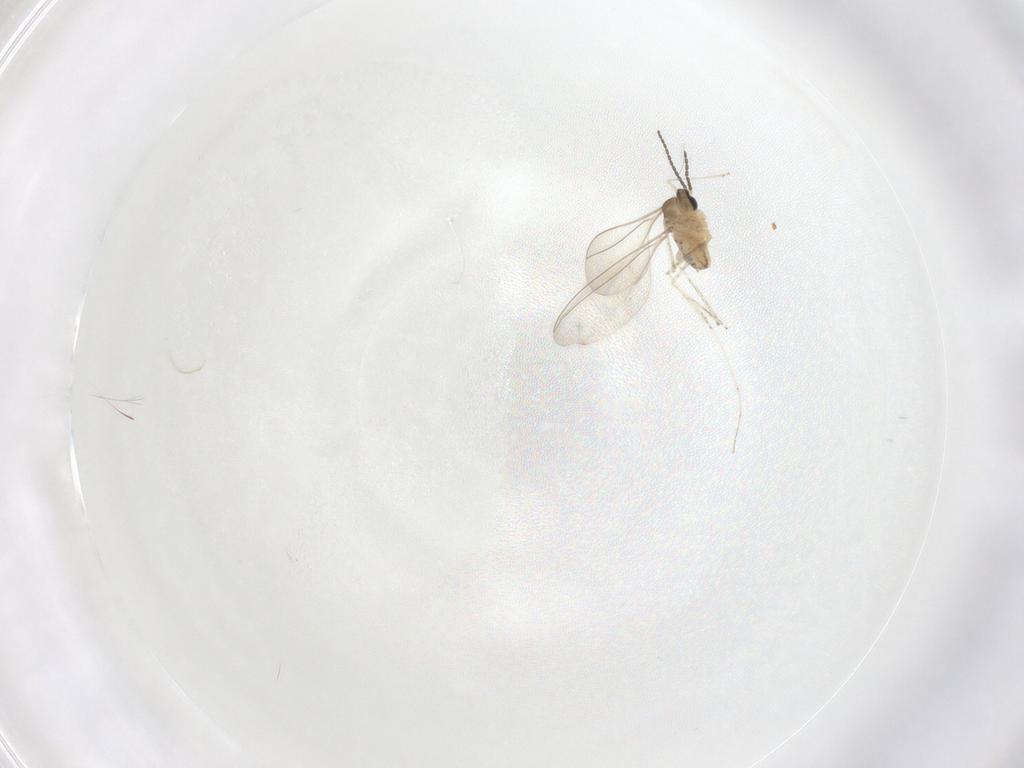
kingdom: Animalia
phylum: Arthropoda
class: Insecta
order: Diptera
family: Cecidomyiidae
